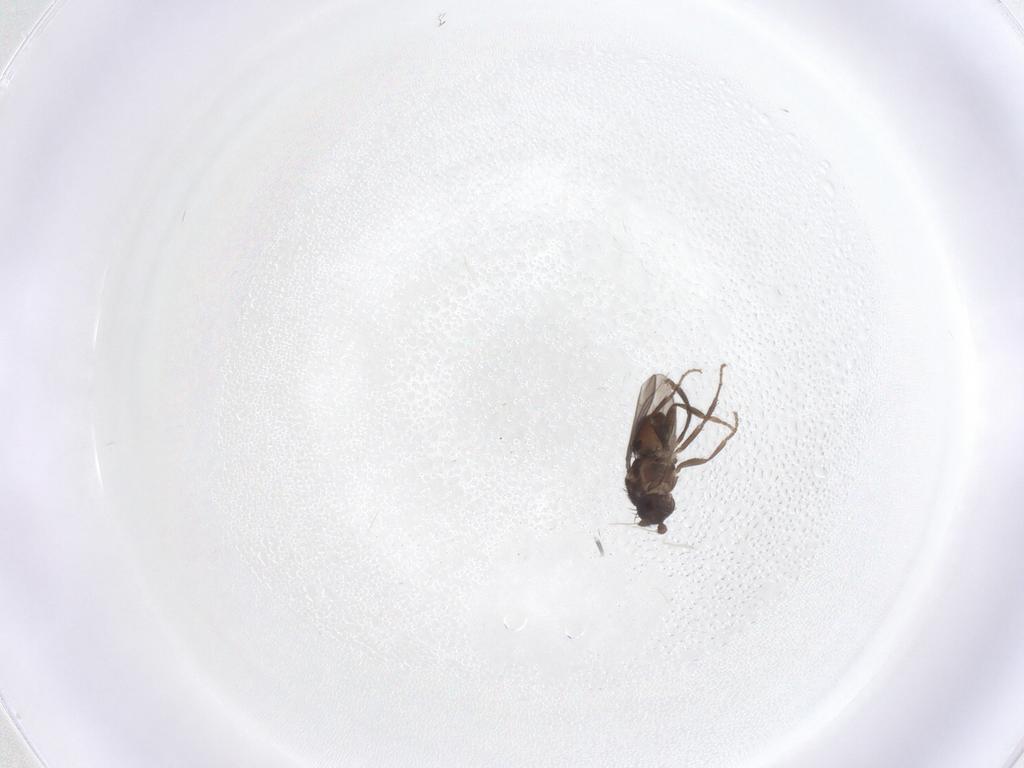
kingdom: Animalia
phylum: Arthropoda
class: Insecta
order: Diptera
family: Sphaeroceridae
